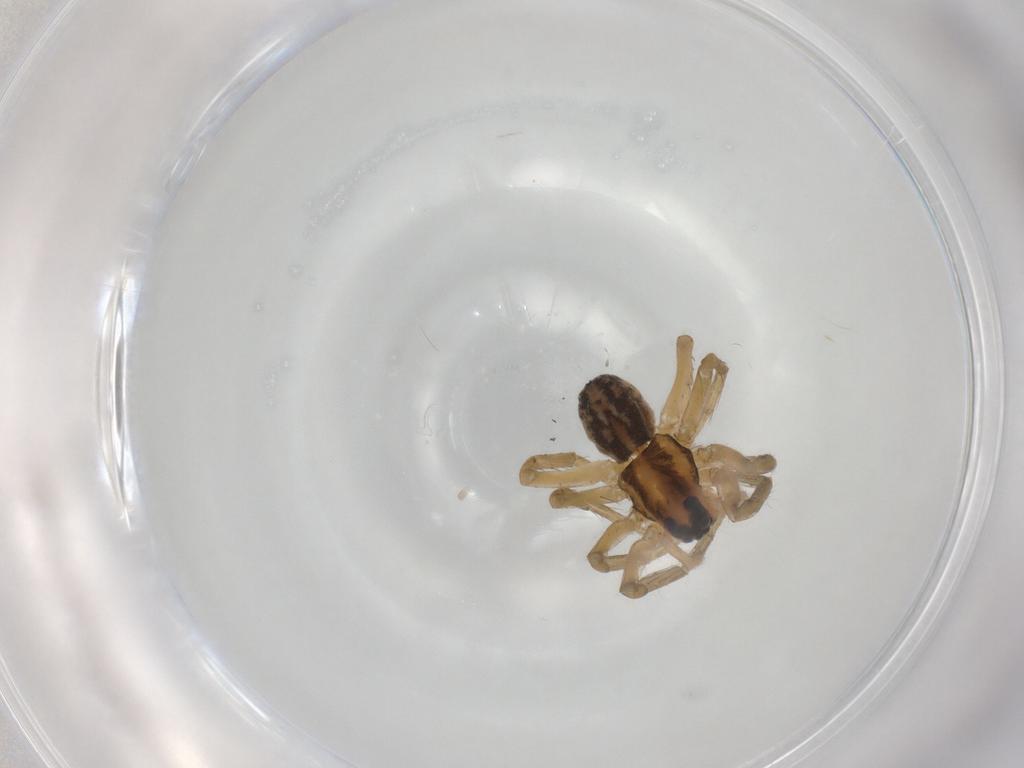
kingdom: Animalia
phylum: Arthropoda
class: Arachnida
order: Araneae
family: Lycosidae
